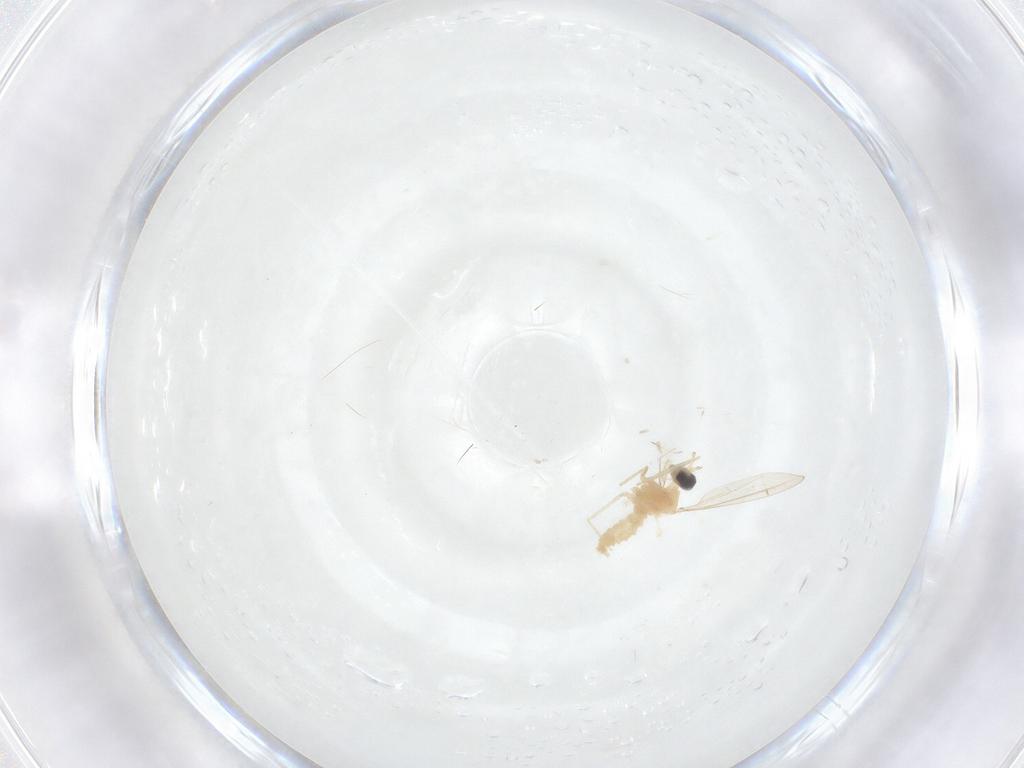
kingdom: Animalia
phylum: Arthropoda
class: Insecta
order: Diptera
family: Cecidomyiidae
